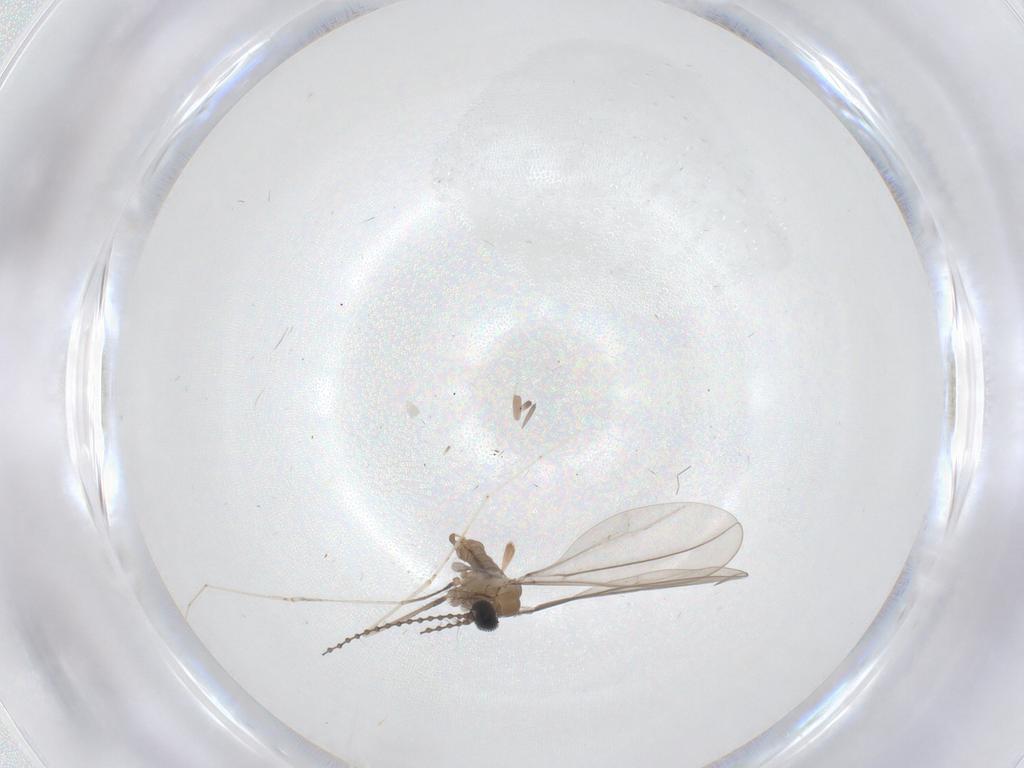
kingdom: Animalia
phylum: Arthropoda
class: Insecta
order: Diptera
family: Cecidomyiidae
